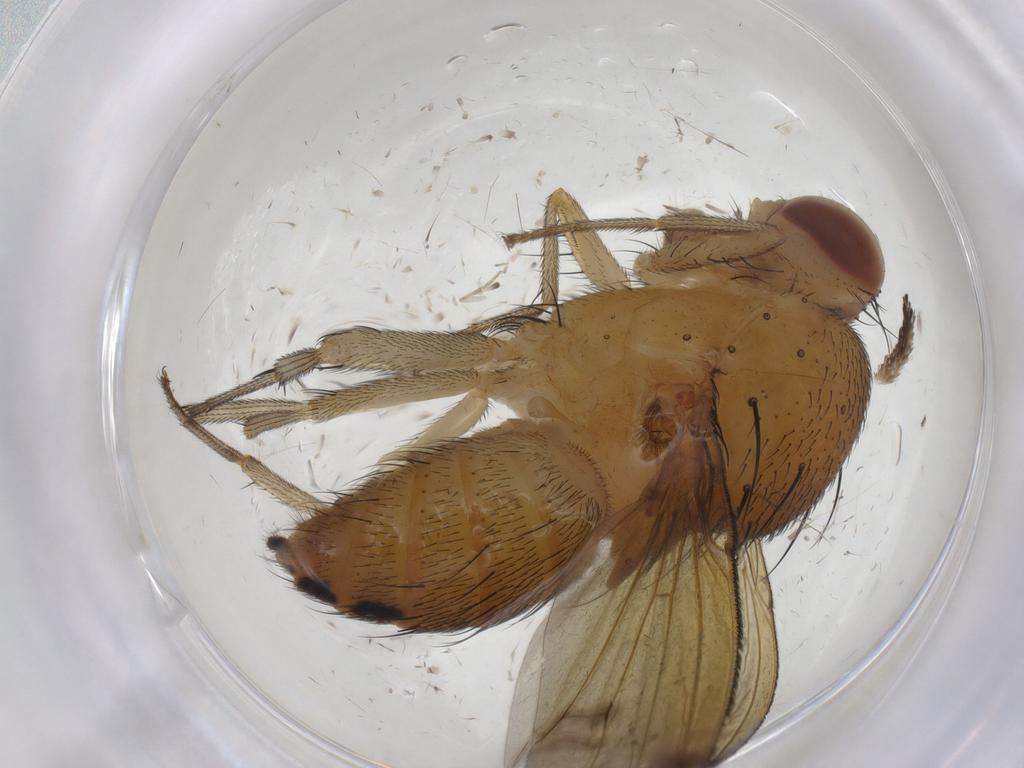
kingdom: Animalia
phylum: Arthropoda
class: Insecta
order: Diptera
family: Psychodidae
